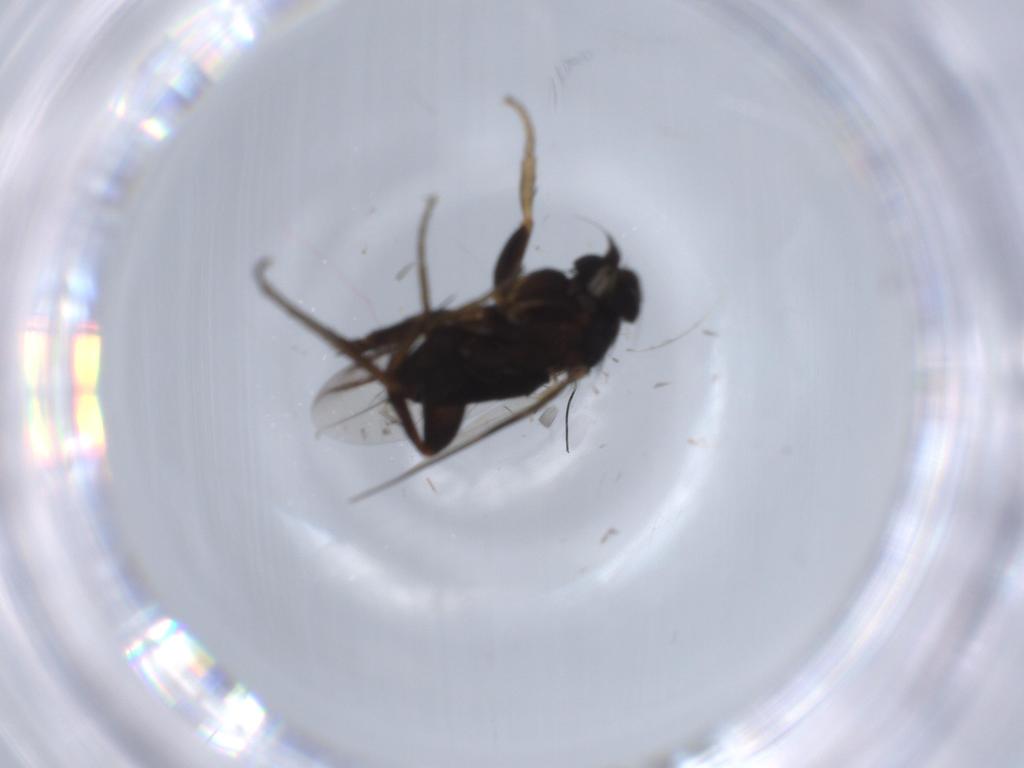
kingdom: Animalia
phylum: Arthropoda
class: Insecta
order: Diptera
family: Phoridae
